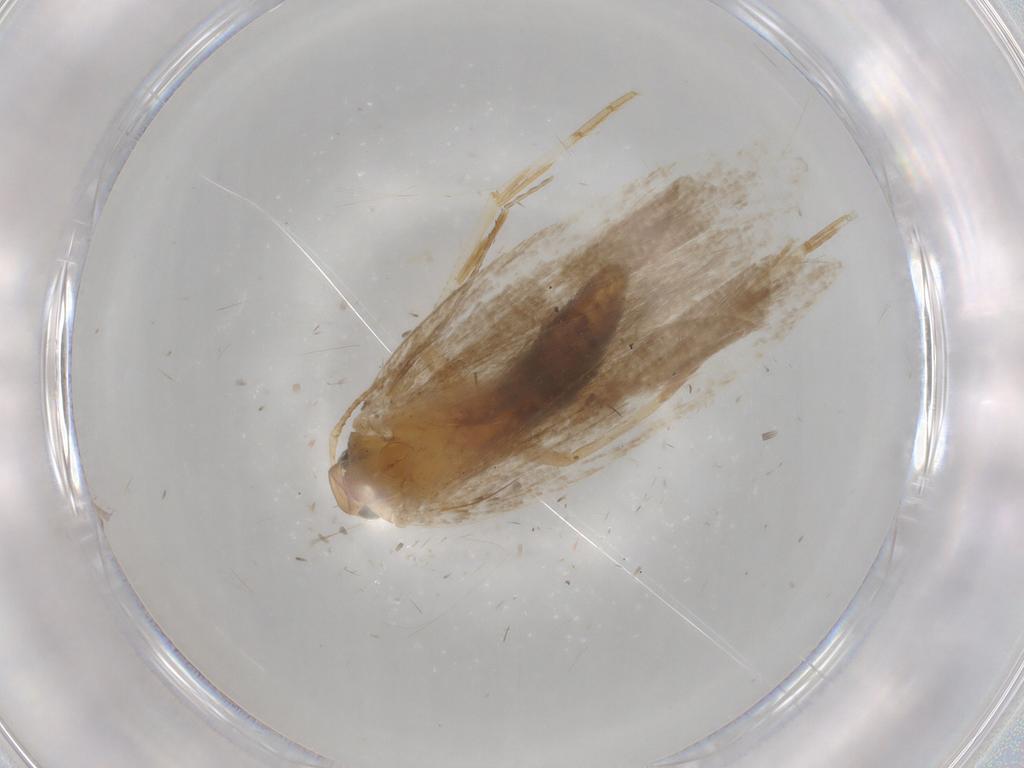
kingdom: Animalia
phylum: Arthropoda
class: Insecta
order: Lepidoptera
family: Gelechiidae
